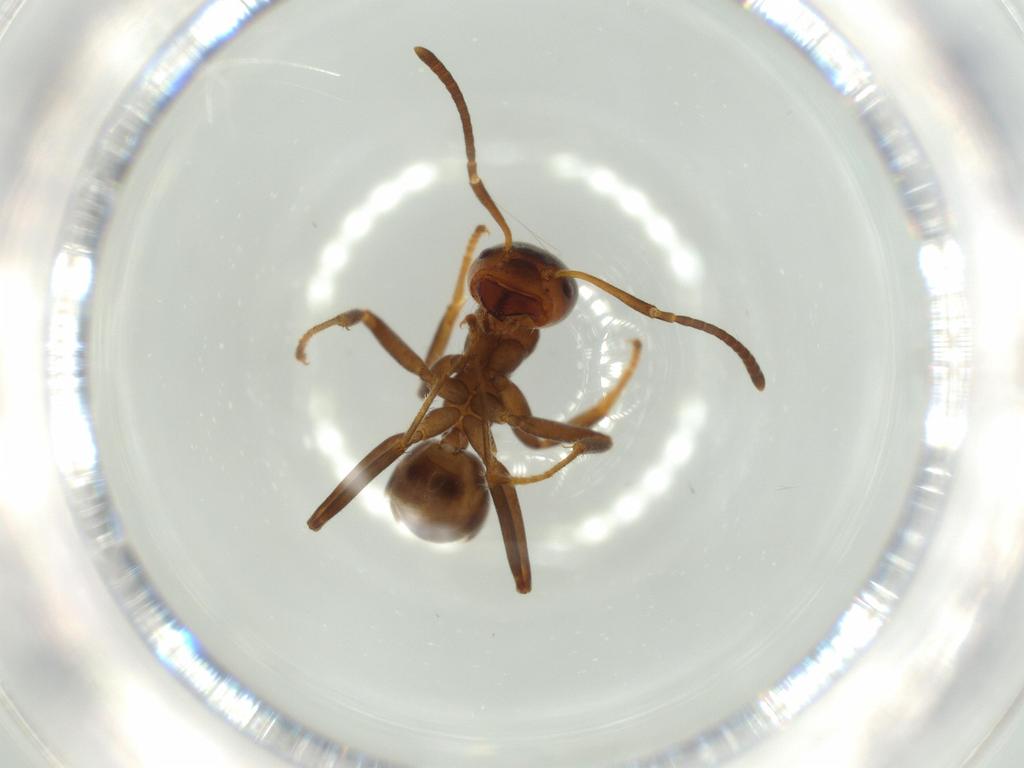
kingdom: Animalia
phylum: Arthropoda
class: Insecta
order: Hymenoptera
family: Formicidae
